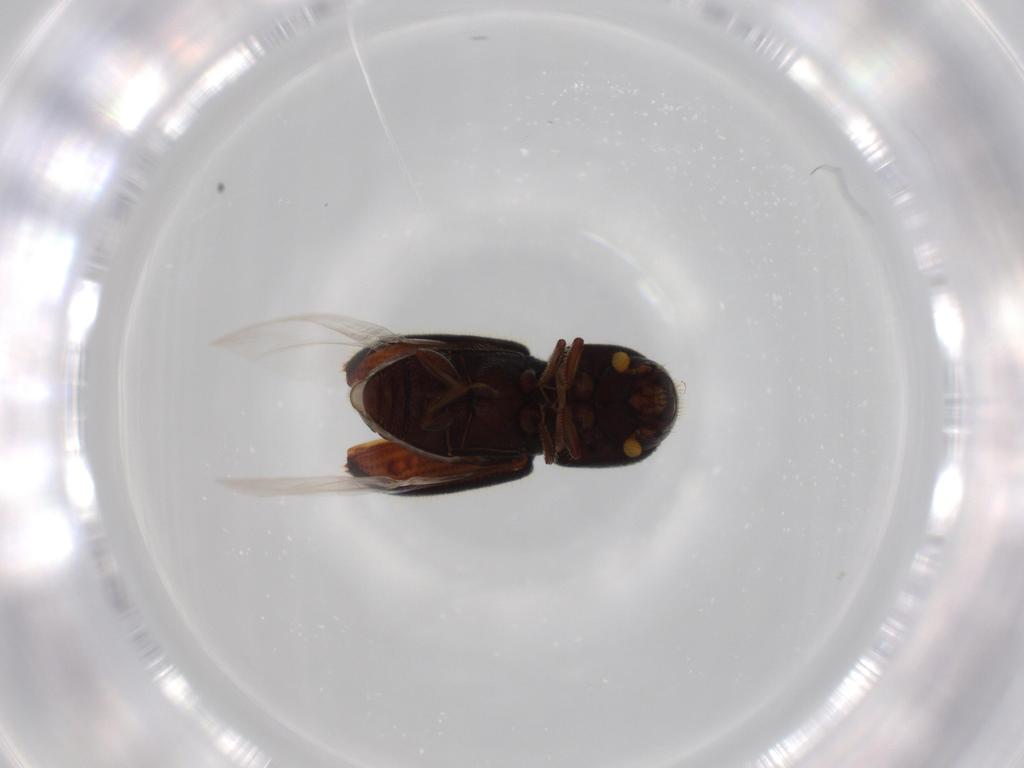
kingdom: Animalia
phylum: Arthropoda
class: Insecta
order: Coleoptera
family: Curculionidae
